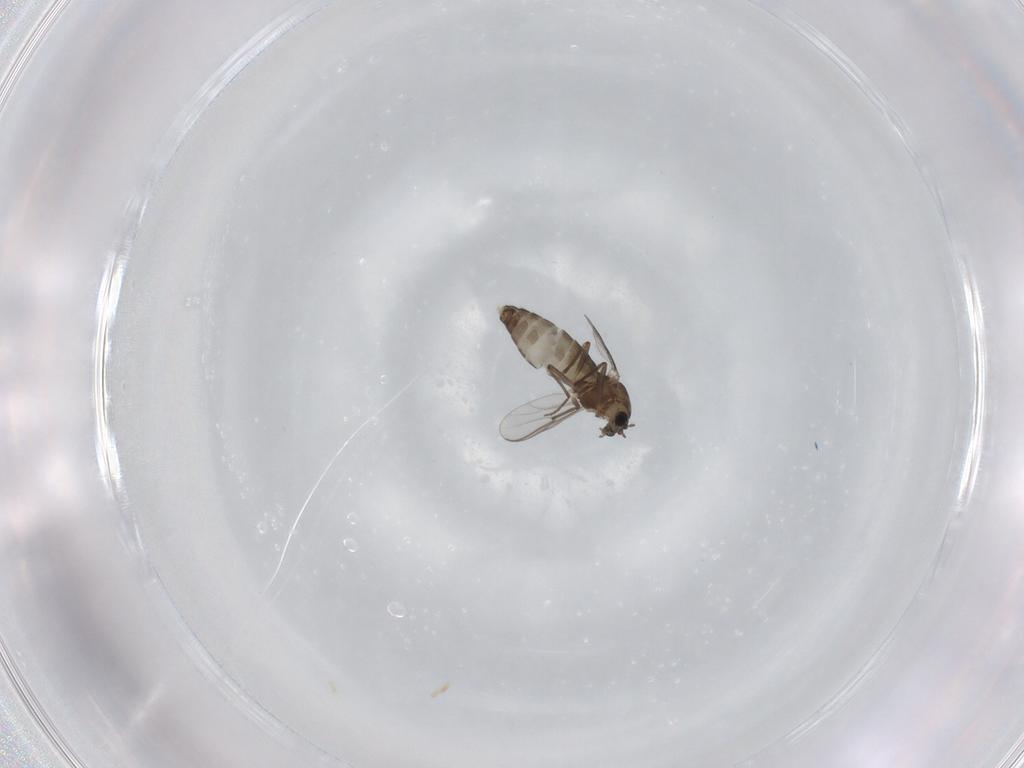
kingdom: Animalia
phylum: Arthropoda
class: Insecta
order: Diptera
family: Chironomidae
